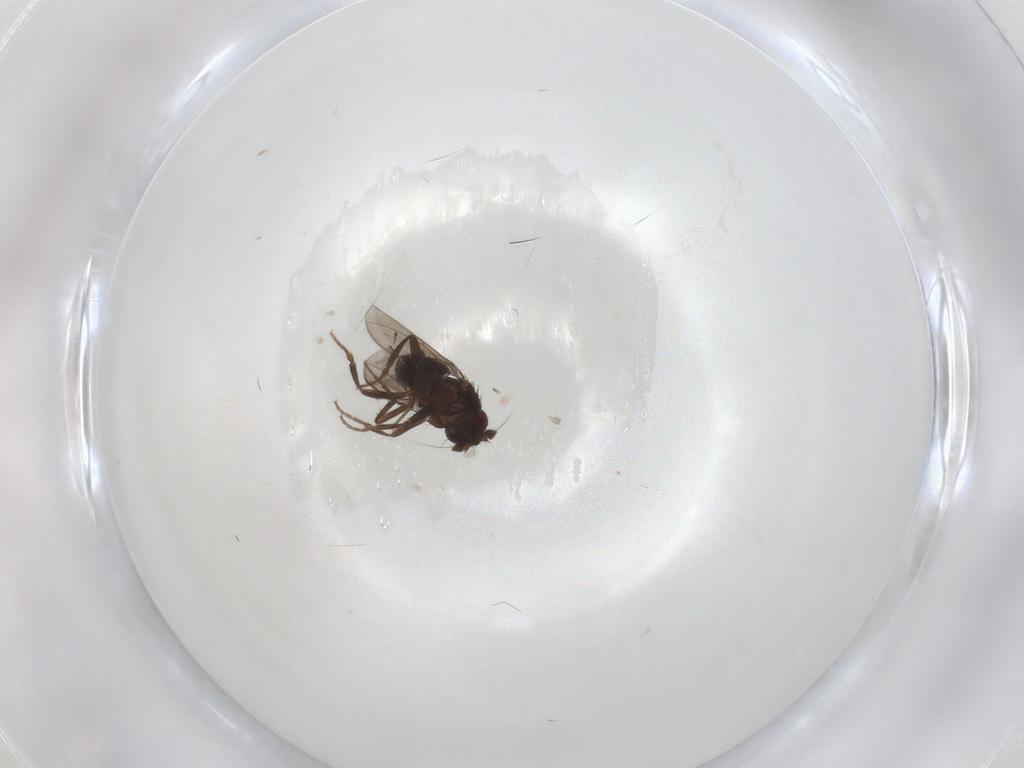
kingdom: Animalia
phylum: Arthropoda
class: Insecta
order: Diptera
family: Sphaeroceridae
